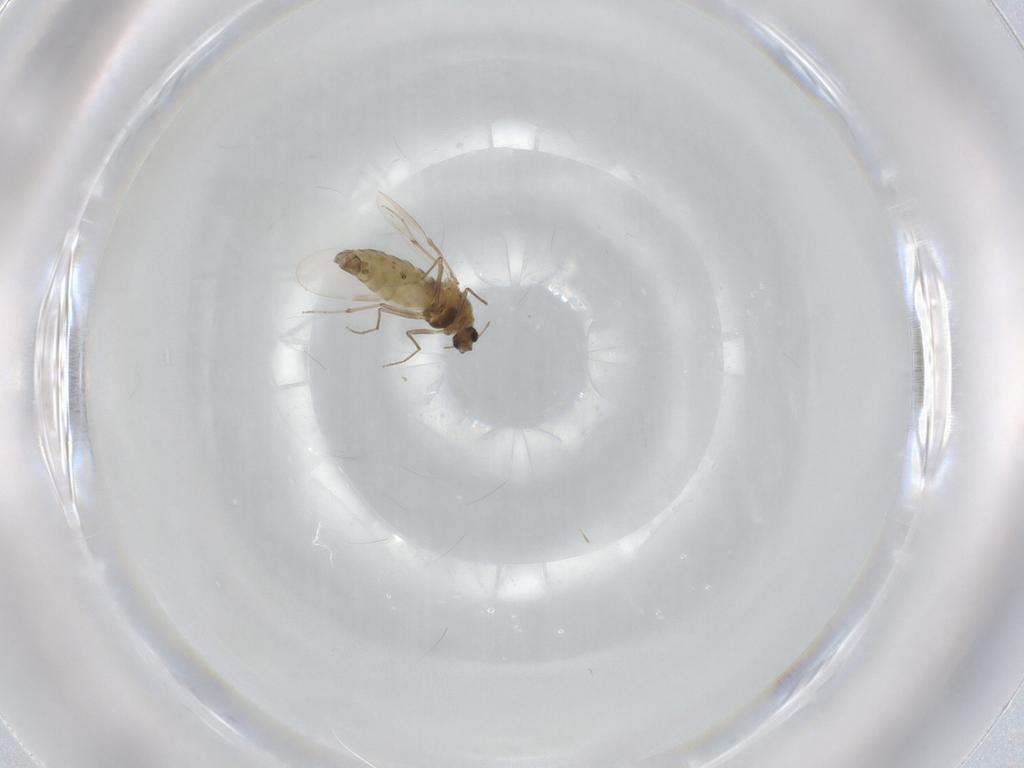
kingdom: Animalia
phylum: Arthropoda
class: Insecta
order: Diptera
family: Chironomidae
